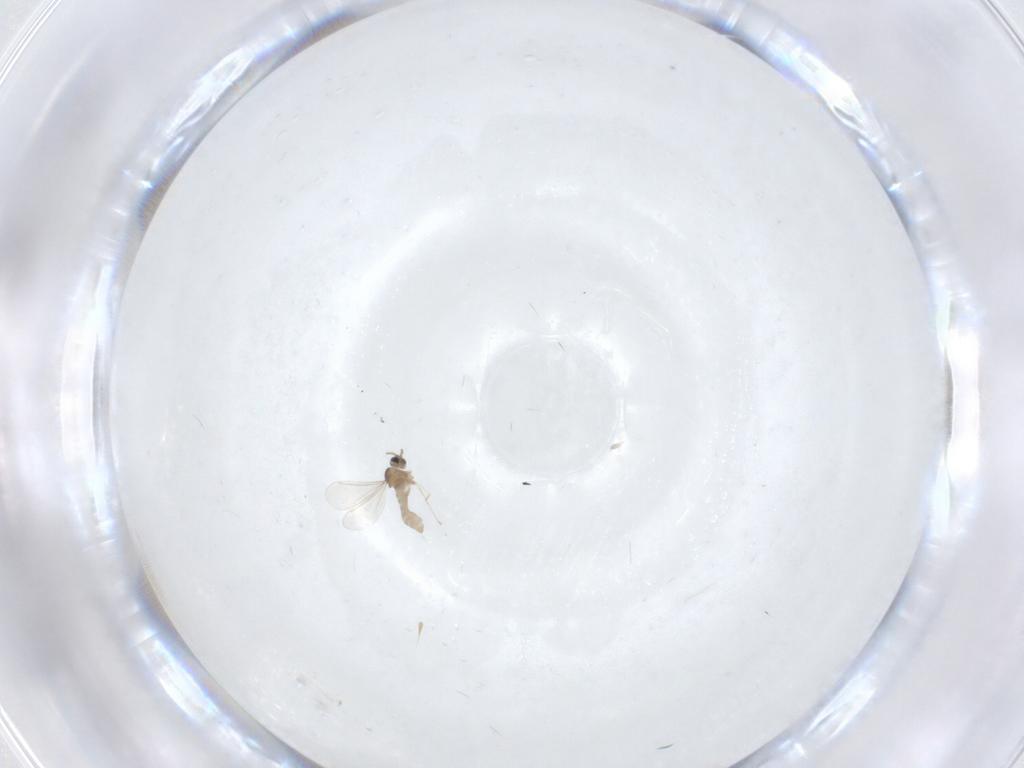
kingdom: Animalia
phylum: Arthropoda
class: Insecta
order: Diptera
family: Cecidomyiidae
